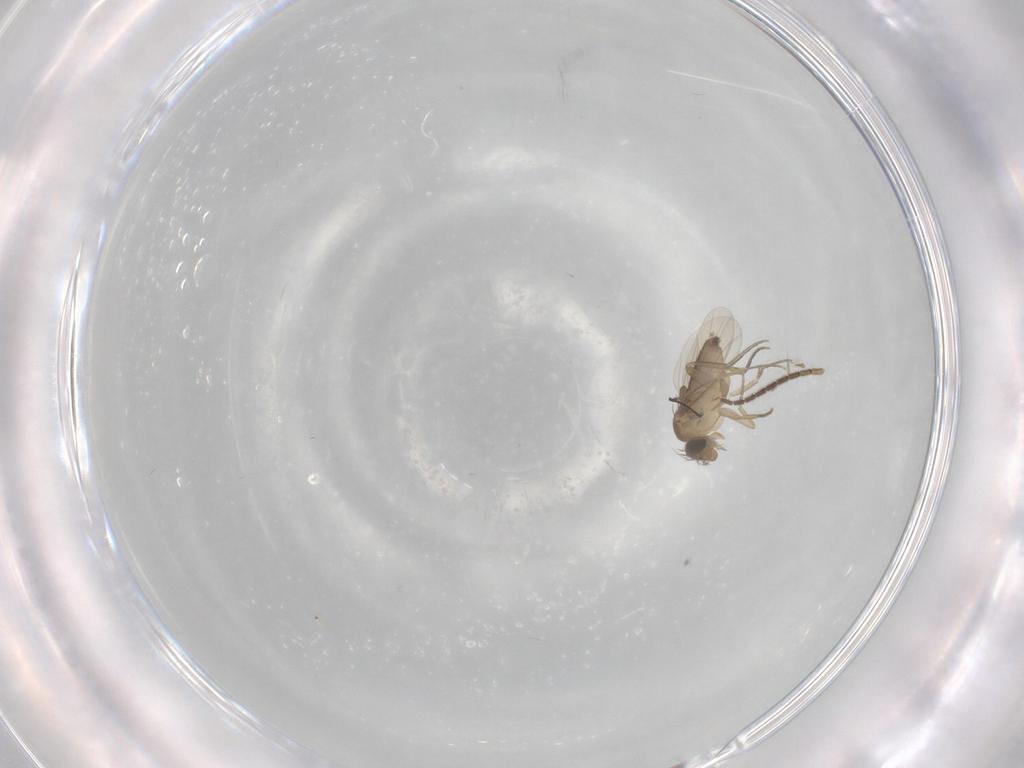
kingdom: Animalia
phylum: Arthropoda
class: Insecta
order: Diptera
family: Sciaridae
